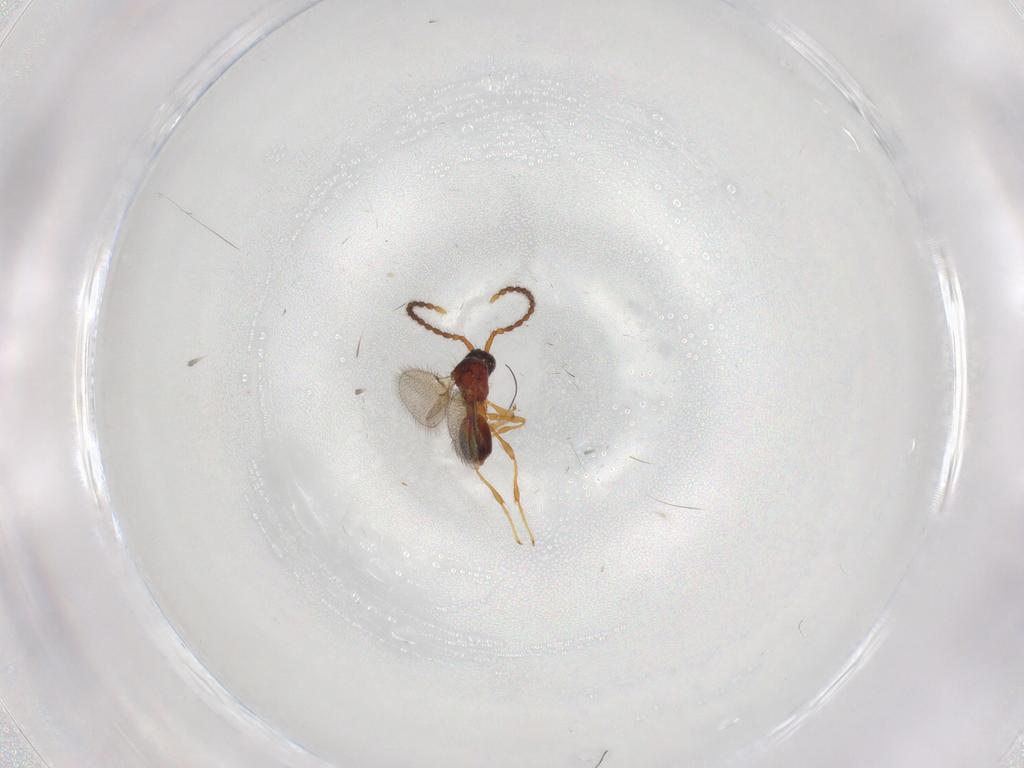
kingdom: Animalia
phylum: Arthropoda
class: Insecta
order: Hymenoptera
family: Diapriidae
